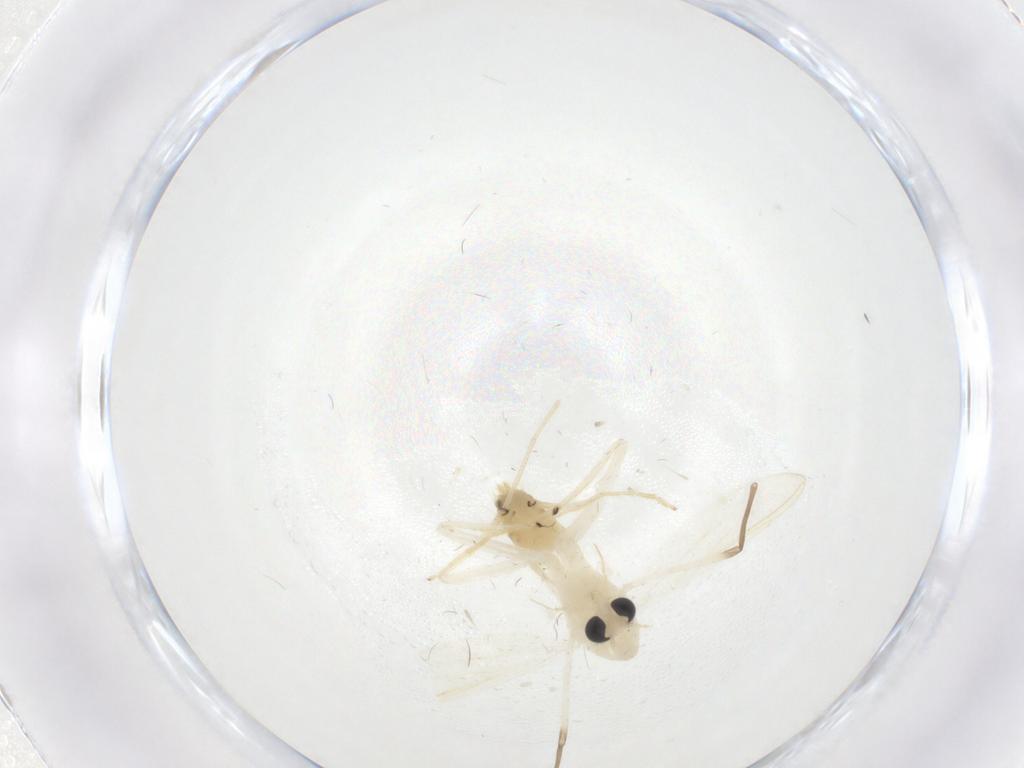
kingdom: Animalia
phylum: Arthropoda
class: Insecta
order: Diptera
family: Chironomidae
